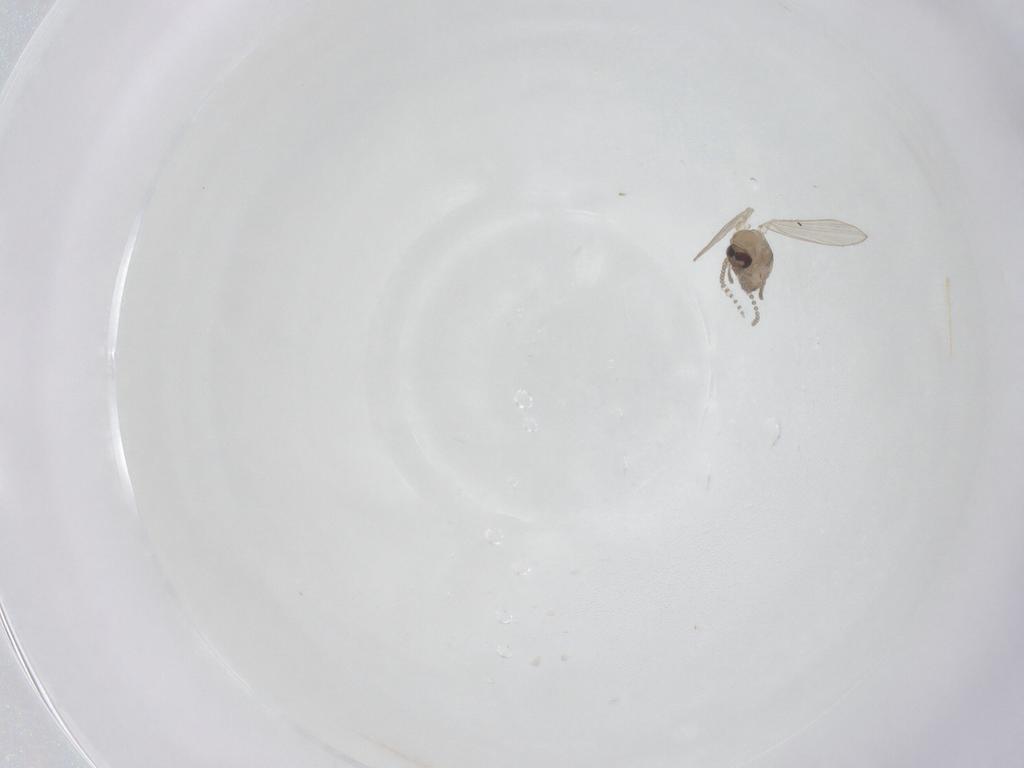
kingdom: Animalia
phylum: Arthropoda
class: Insecta
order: Diptera
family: Psychodidae
